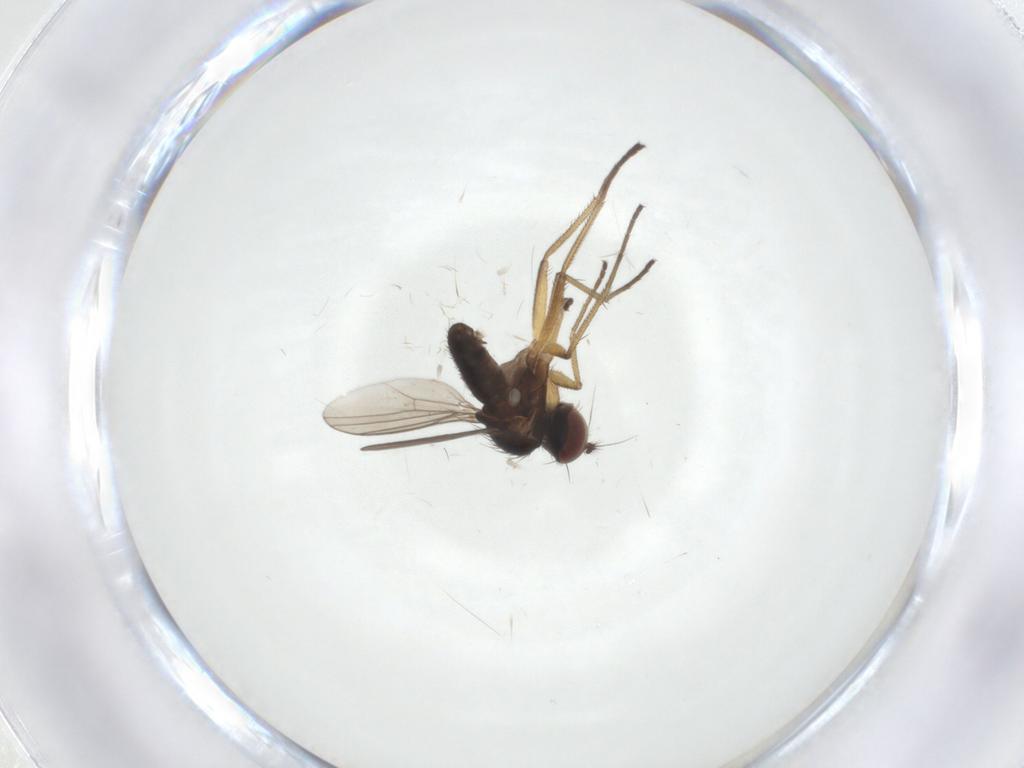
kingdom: Animalia
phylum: Arthropoda
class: Insecta
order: Diptera
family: Dolichopodidae
